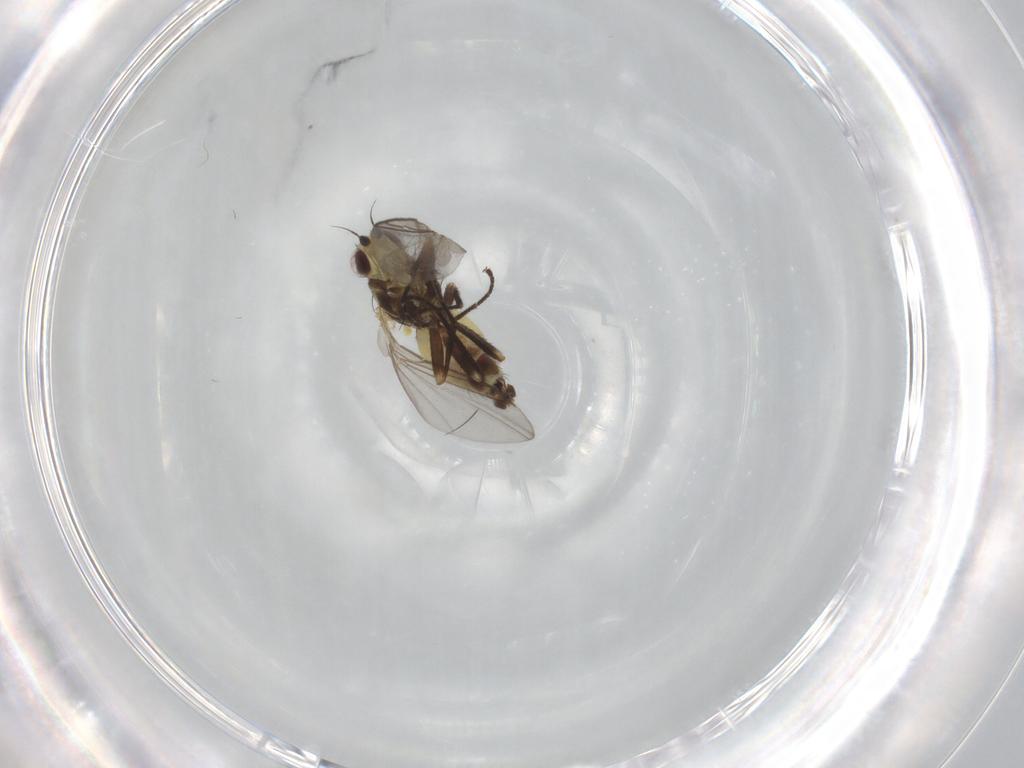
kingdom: Animalia
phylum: Arthropoda
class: Insecta
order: Diptera
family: Agromyzidae
